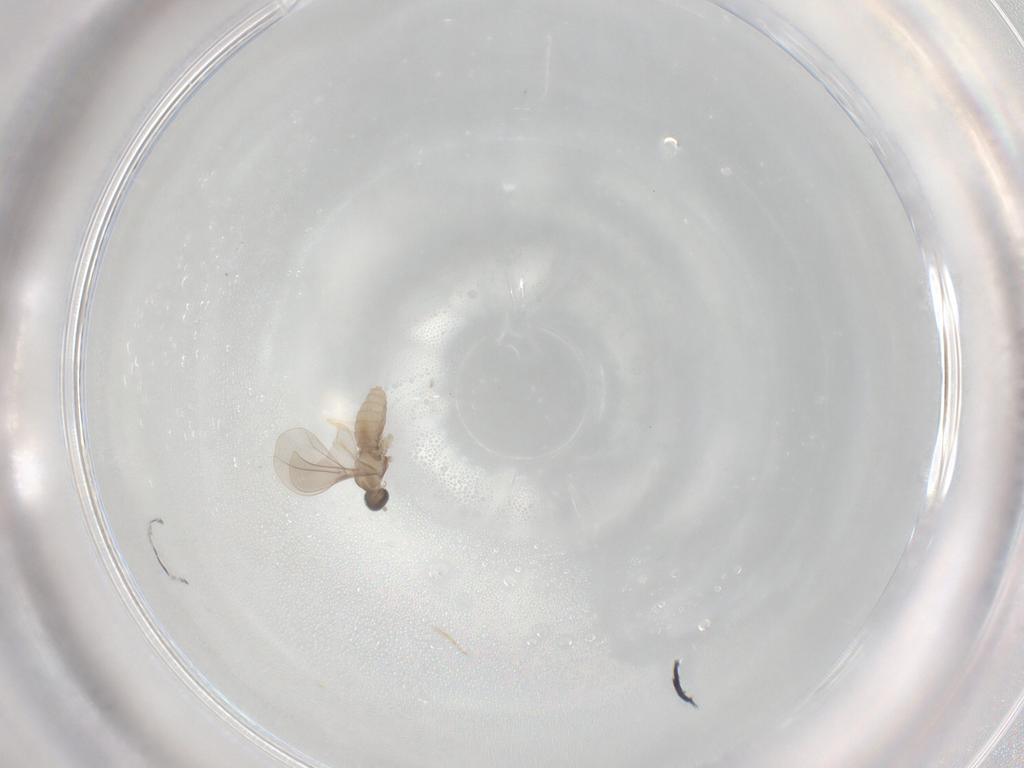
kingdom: Animalia
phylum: Arthropoda
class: Insecta
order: Diptera
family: Cecidomyiidae
